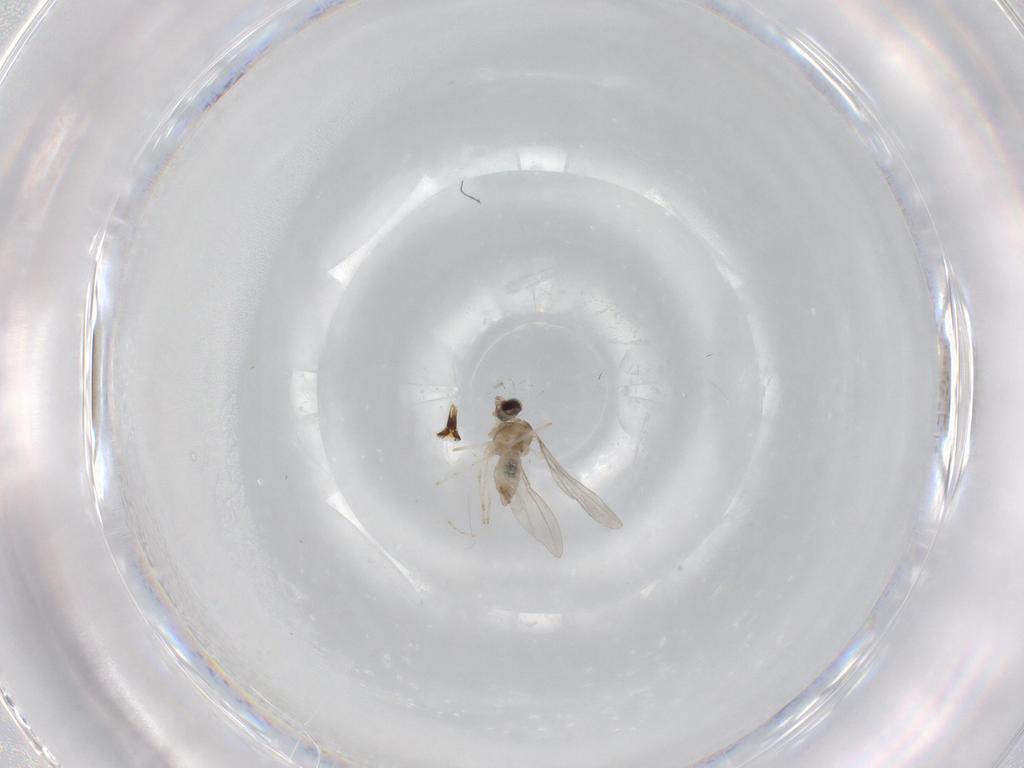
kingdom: Animalia
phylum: Arthropoda
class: Insecta
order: Diptera
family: Cecidomyiidae
